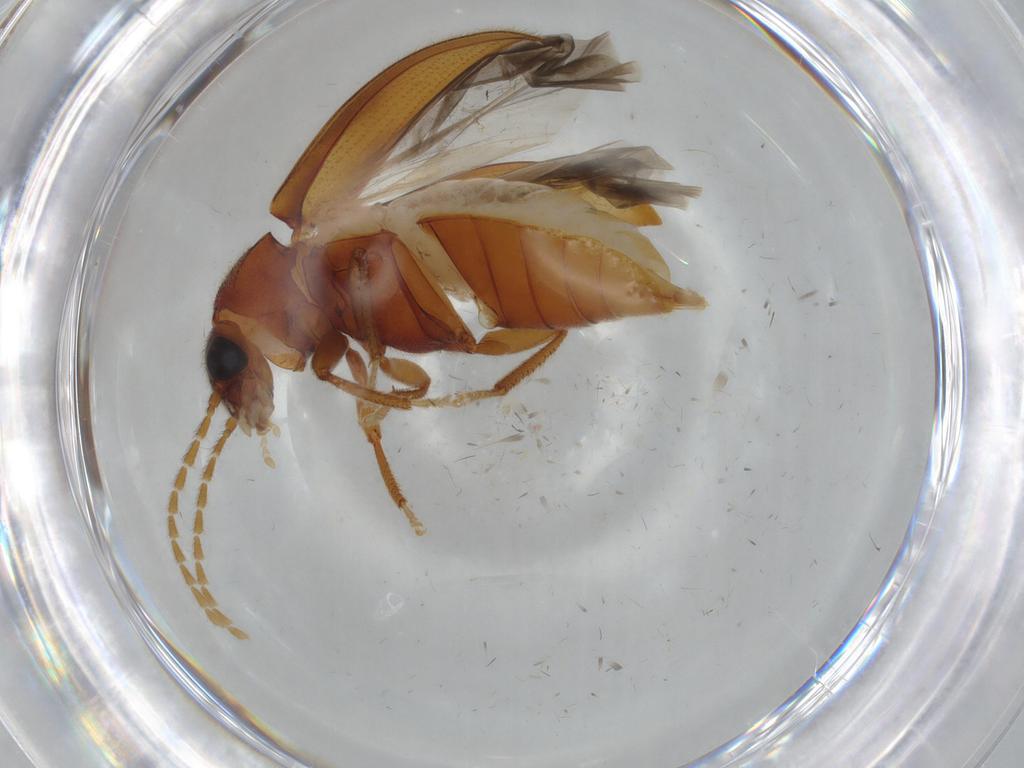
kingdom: Animalia
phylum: Arthropoda
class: Insecta
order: Coleoptera
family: Ptilodactylidae
